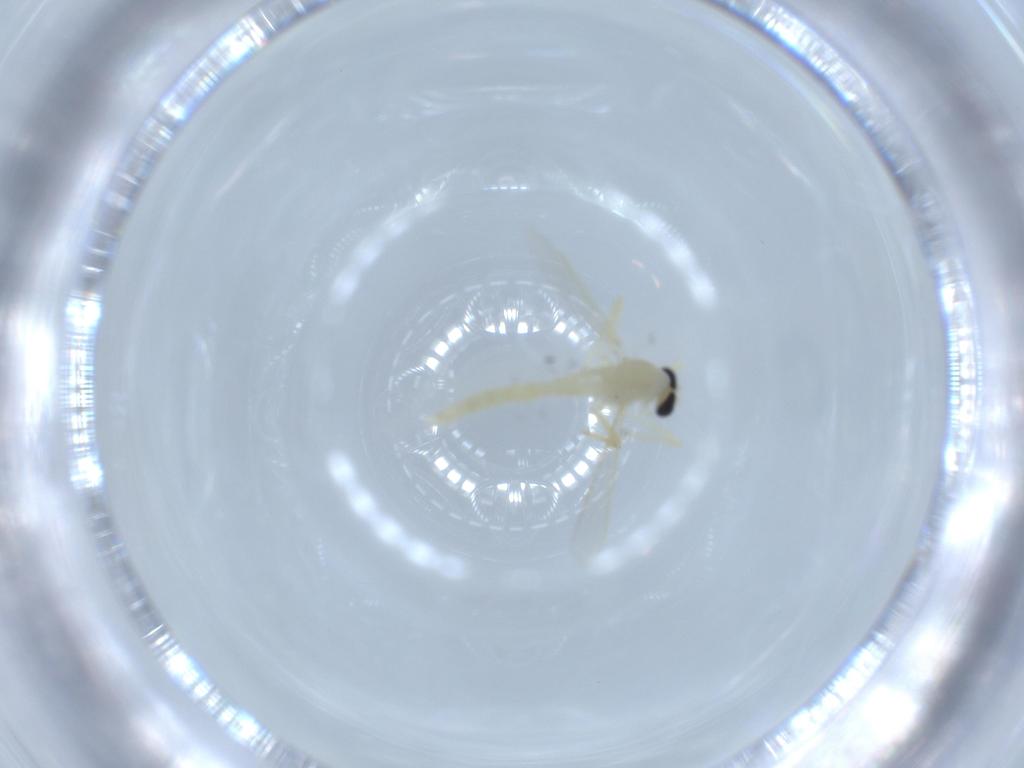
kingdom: Animalia
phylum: Arthropoda
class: Insecta
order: Diptera
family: Chironomidae
